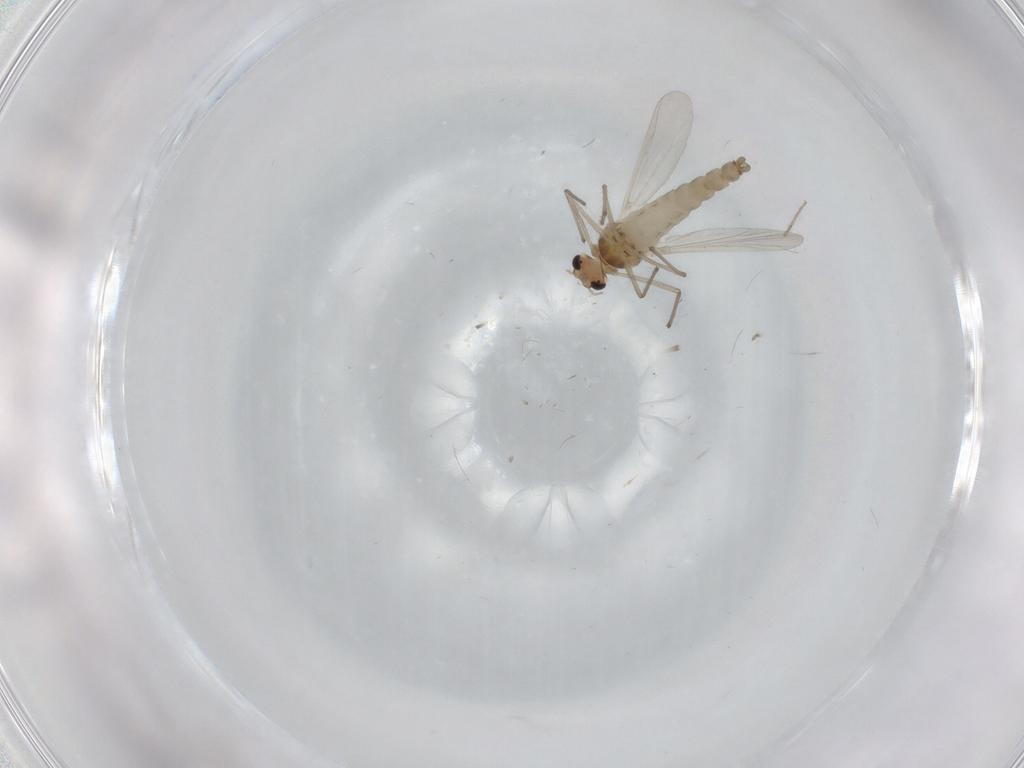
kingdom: Animalia
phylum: Arthropoda
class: Insecta
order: Diptera
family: Chironomidae
